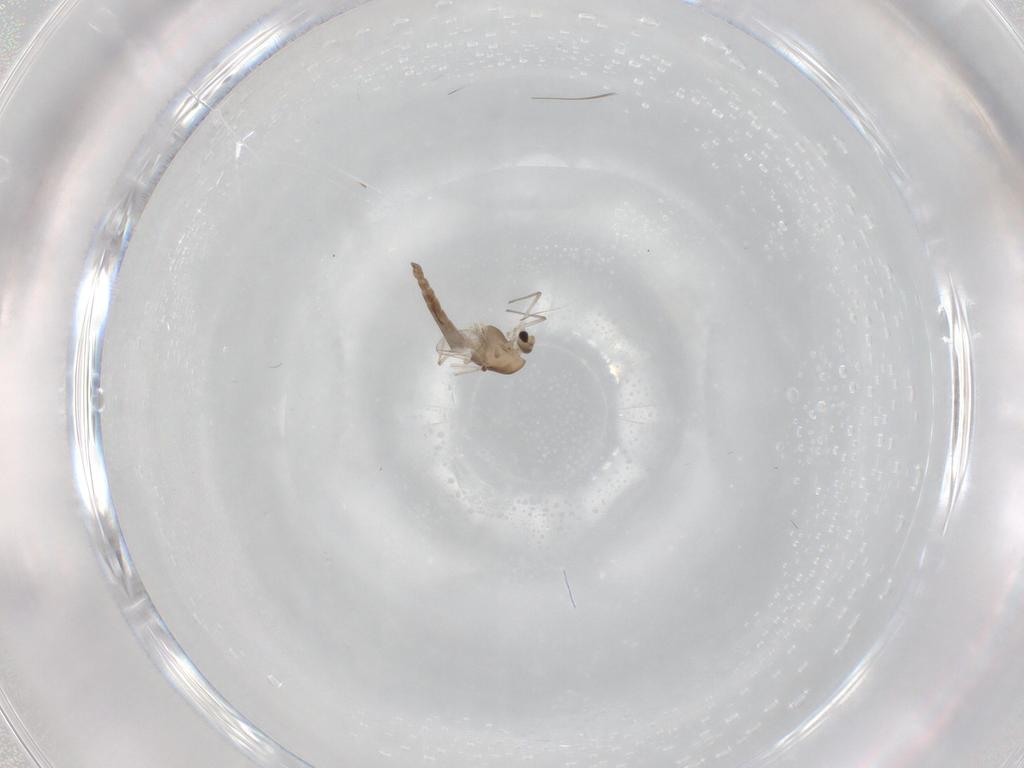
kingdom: Animalia
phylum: Arthropoda
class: Insecta
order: Diptera
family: Chironomidae
